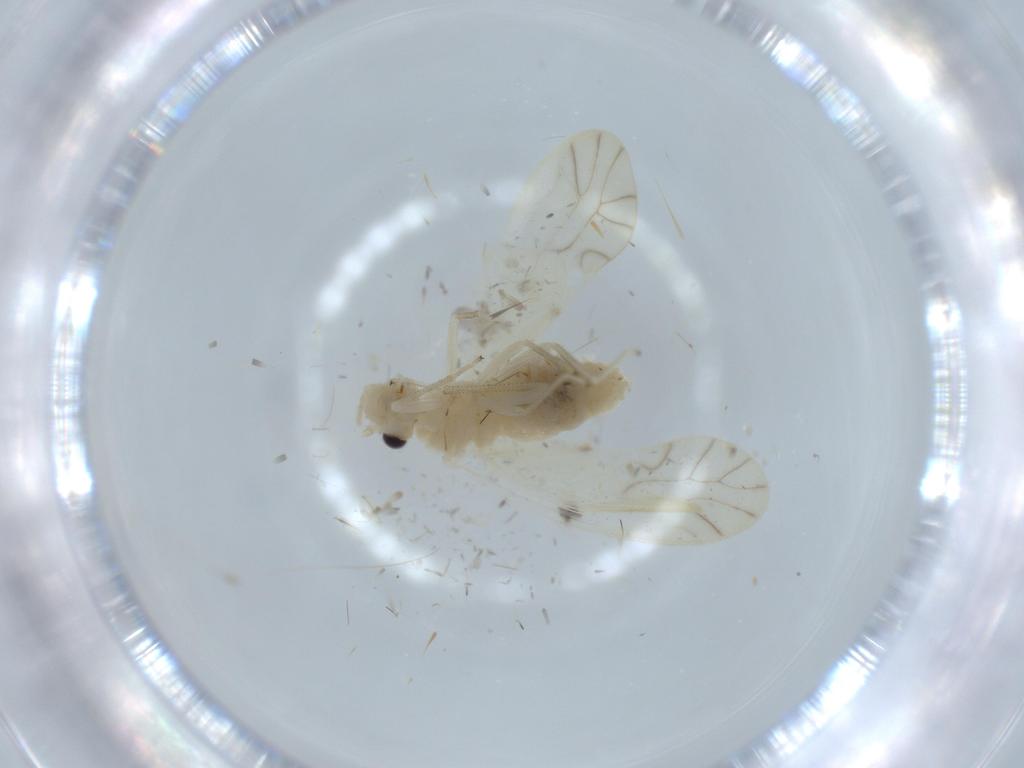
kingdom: Animalia
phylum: Arthropoda
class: Insecta
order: Psocodea
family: Caeciliusidae
